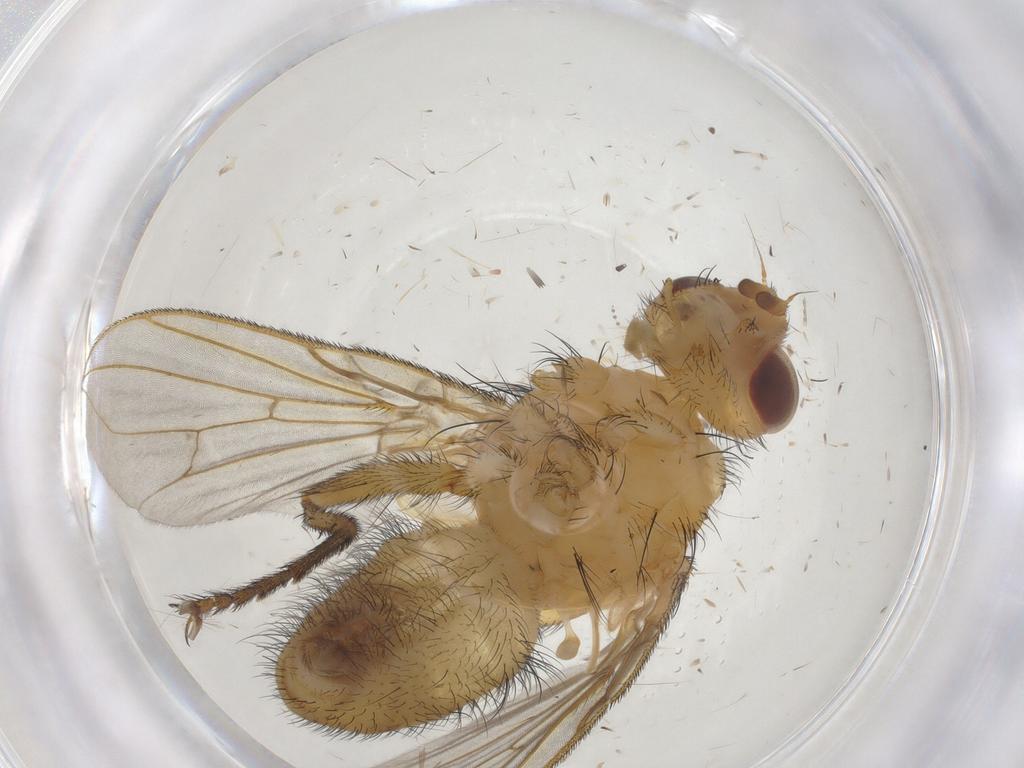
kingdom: Animalia
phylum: Arthropoda
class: Insecta
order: Diptera
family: Tachinidae
